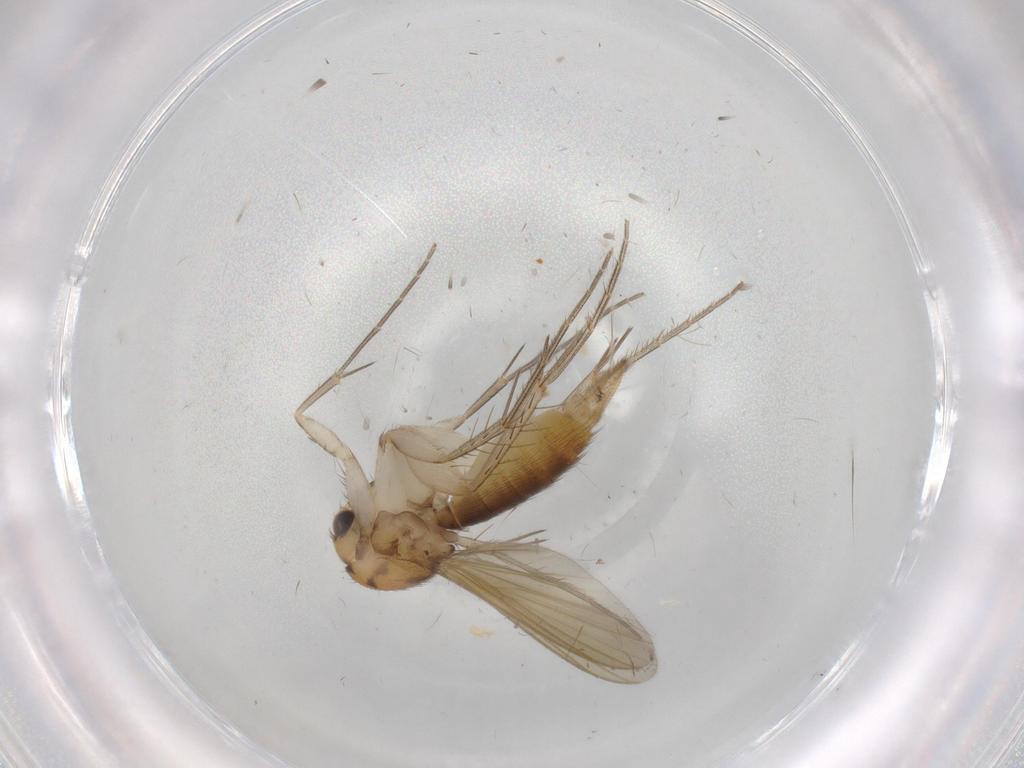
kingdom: Animalia
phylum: Arthropoda
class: Insecta
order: Diptera
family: Mycetophilidae
